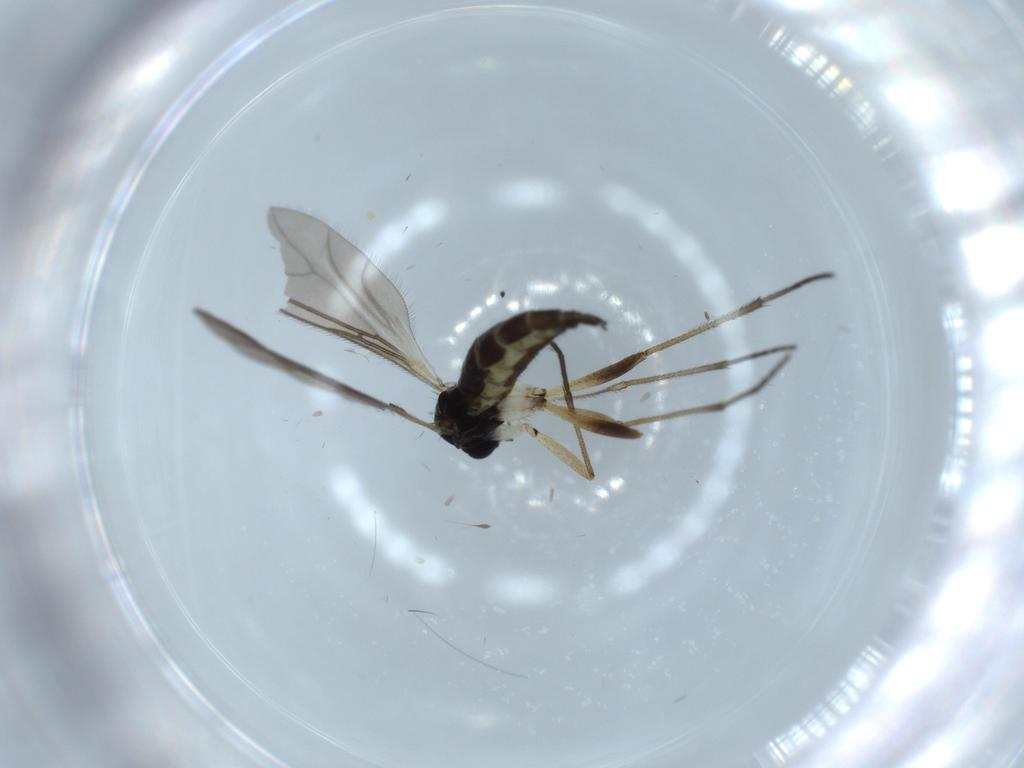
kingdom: Animalia
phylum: Arthropoda
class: Insecta
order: Diptera
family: Sciaridae
